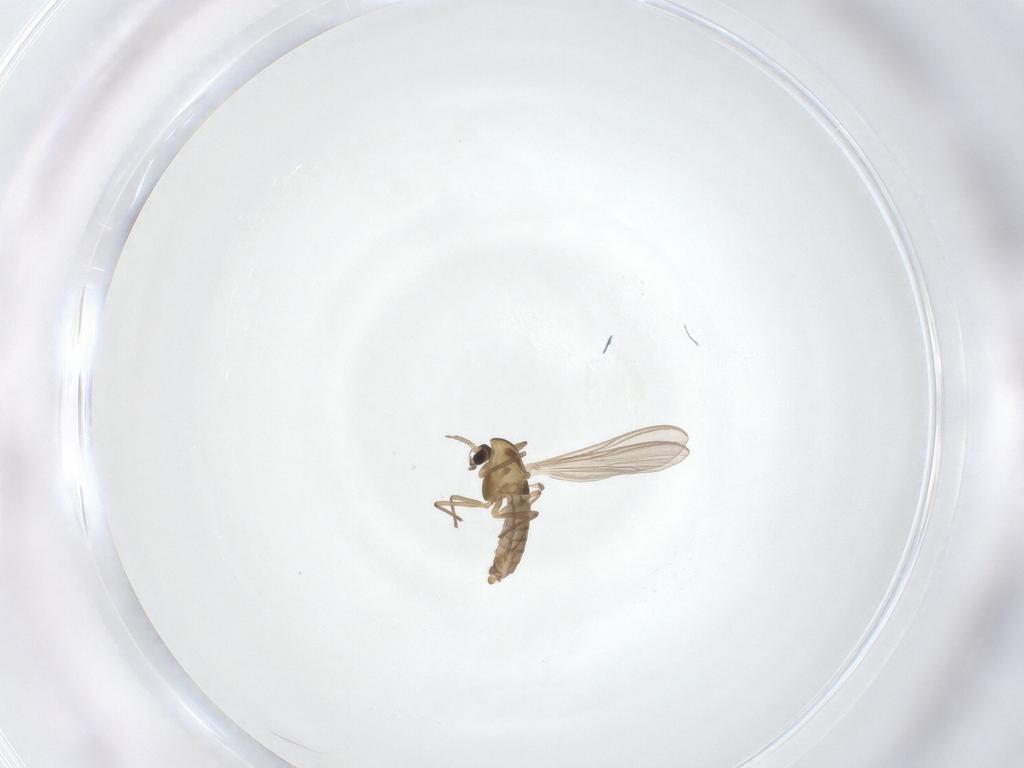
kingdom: Animalia
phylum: Arthropoda
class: Insecta
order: Diptera
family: Chironomidae
